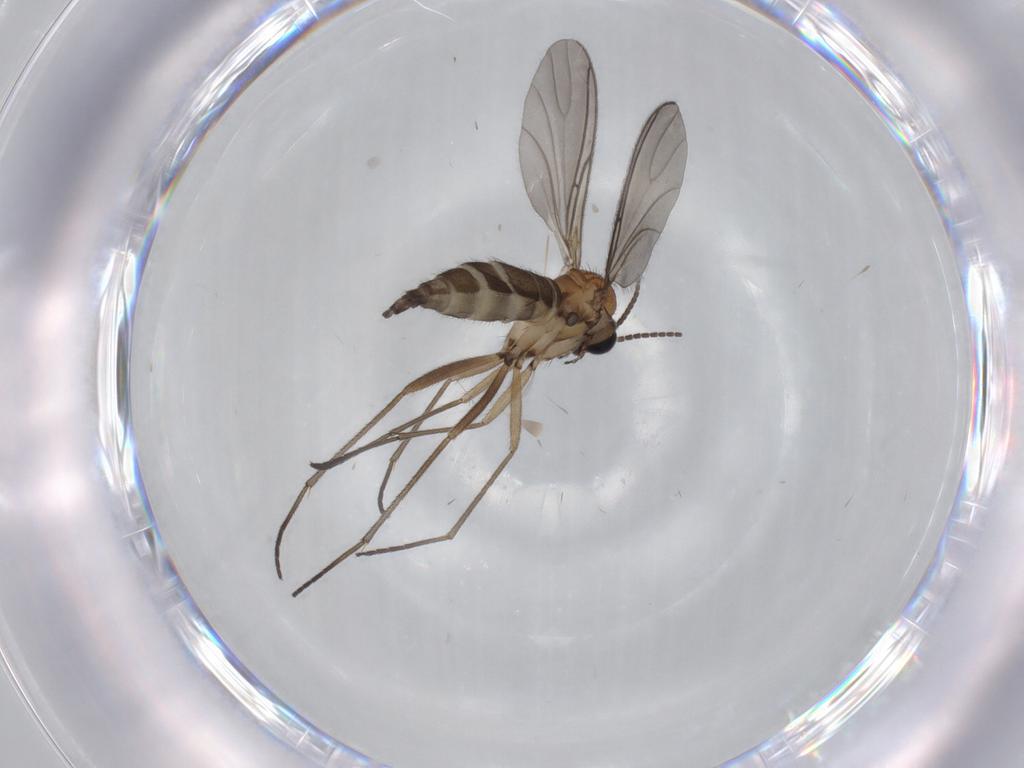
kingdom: Animalia
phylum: Arthropoda
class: Insecta
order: Diptera
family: Sciaridae
